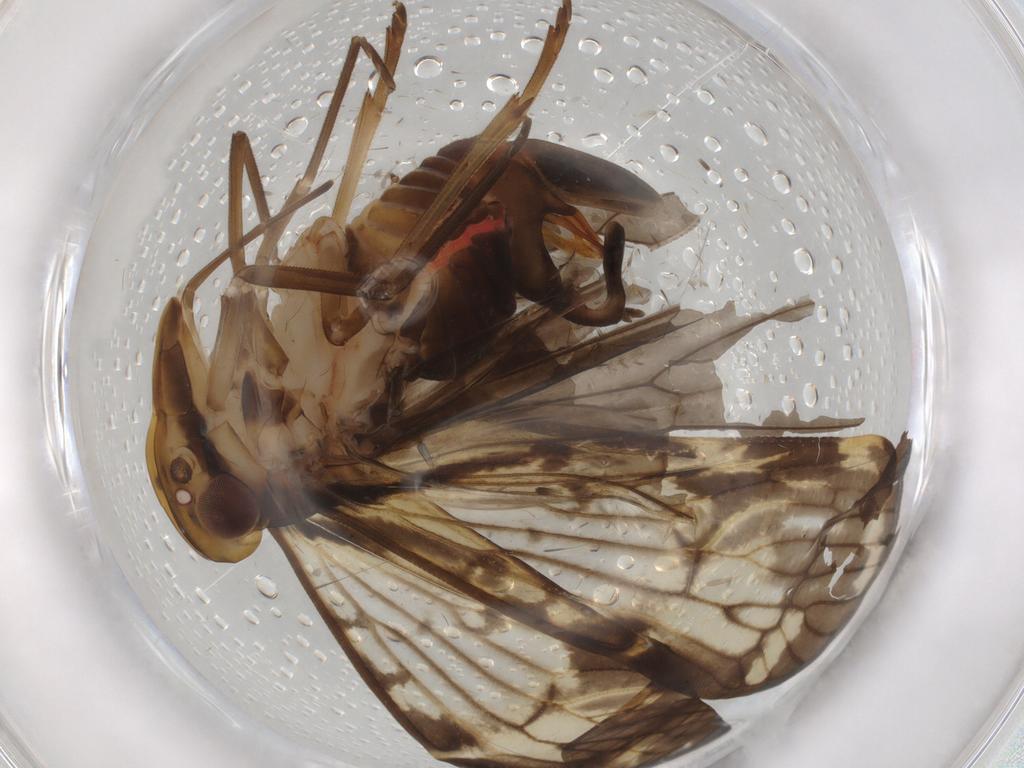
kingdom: Animalia
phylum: Arthropoda
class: Insecta
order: Hemiptera
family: Cixiidae
